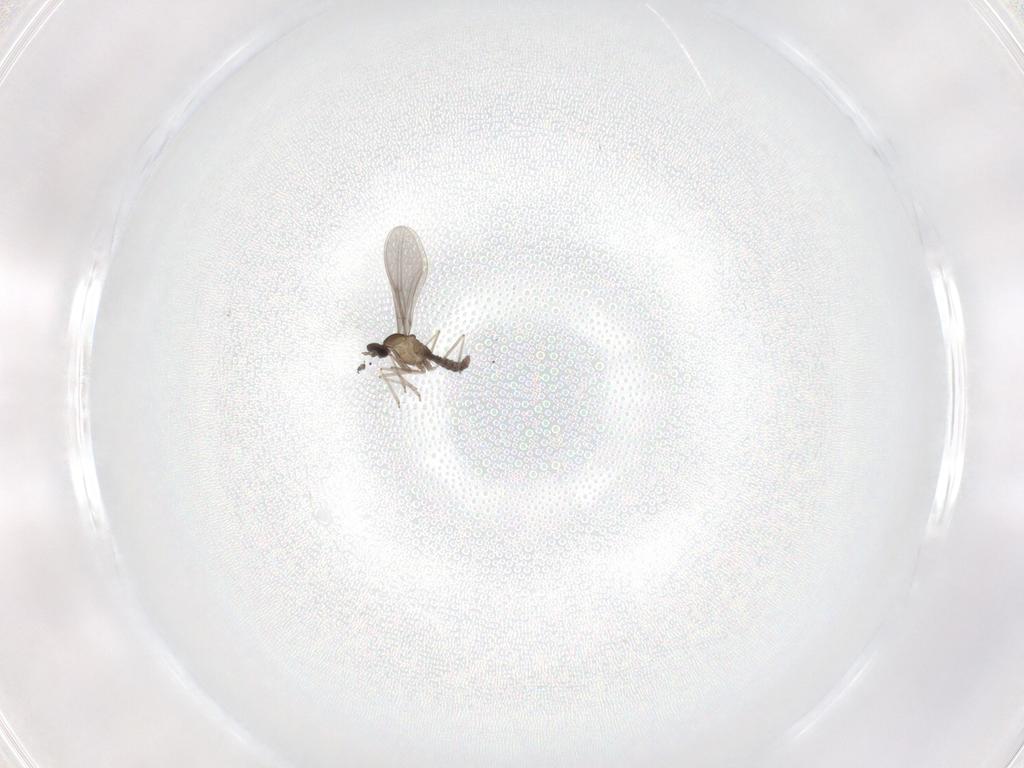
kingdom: Animalia
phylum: Arthropoda
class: Insecta
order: Diptera
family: Cecidomyiidae
